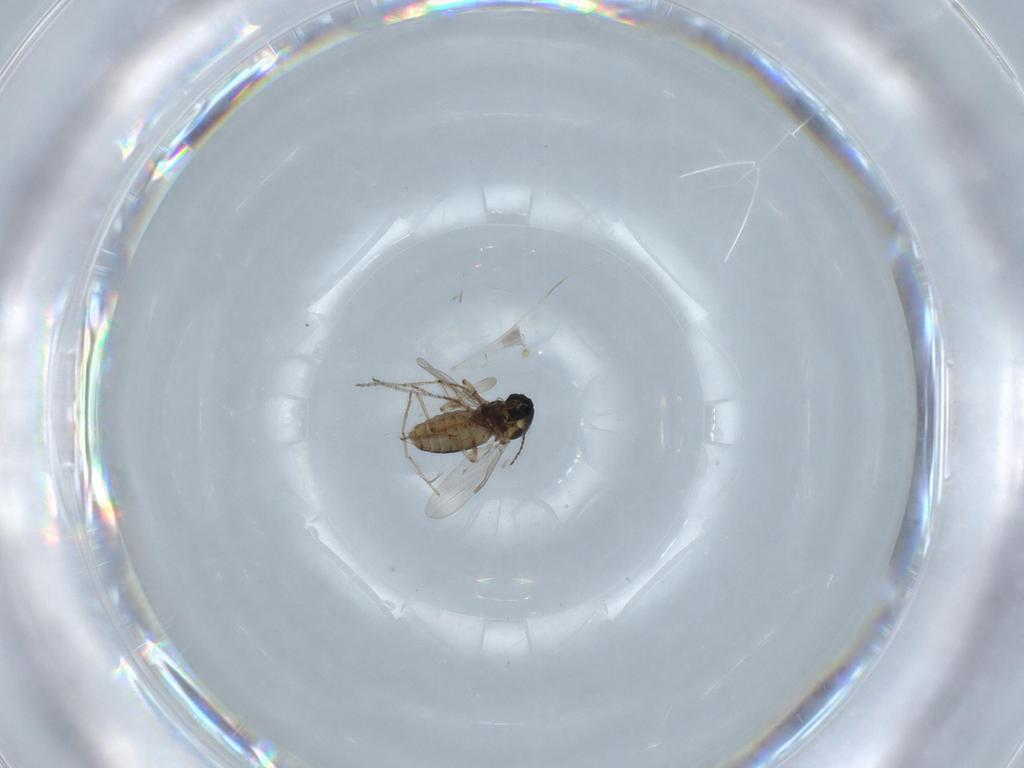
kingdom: Animalia
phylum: Arthropoda
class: Insecta
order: Diptera
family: Ceratopogonidae
